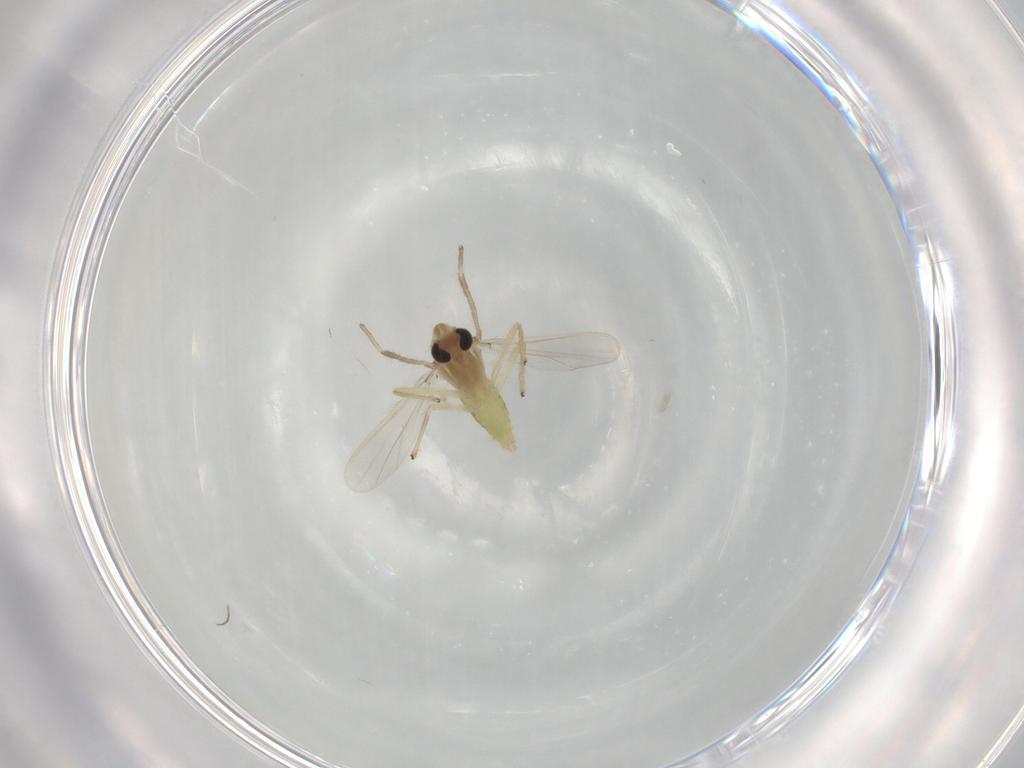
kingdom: Animalia
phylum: Arthropoda
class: Insecta
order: Diptera
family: Chironomidae
